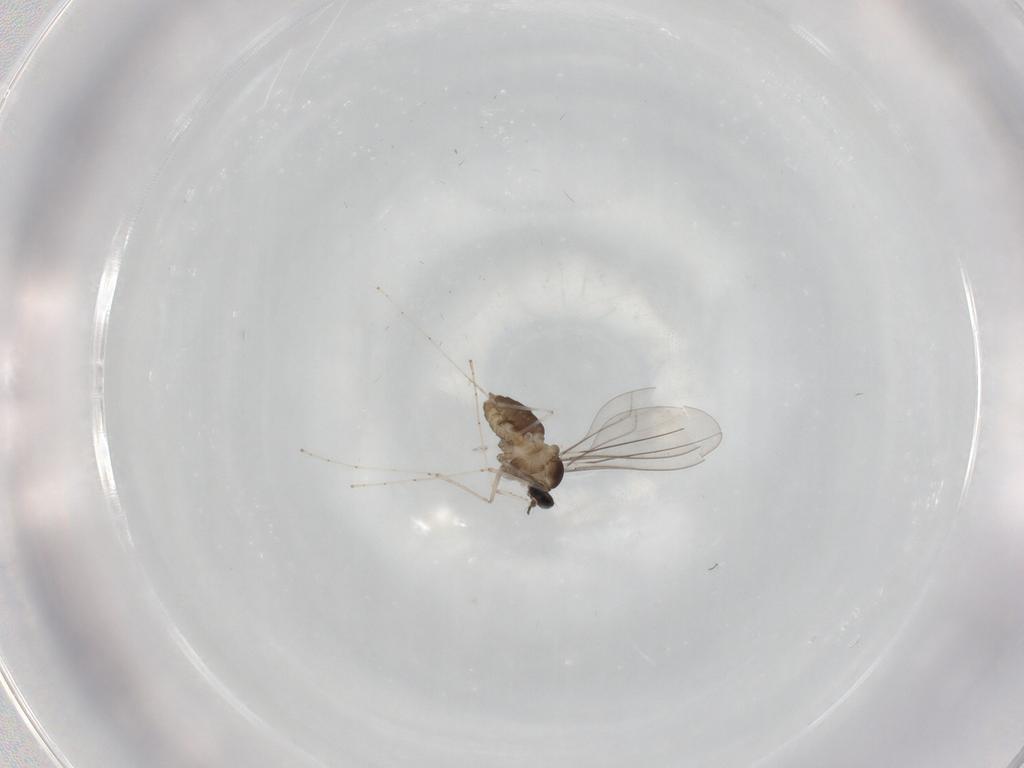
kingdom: Animalia
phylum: Arthropoda
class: Insecta
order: Diptera
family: Cecidomyiidae
